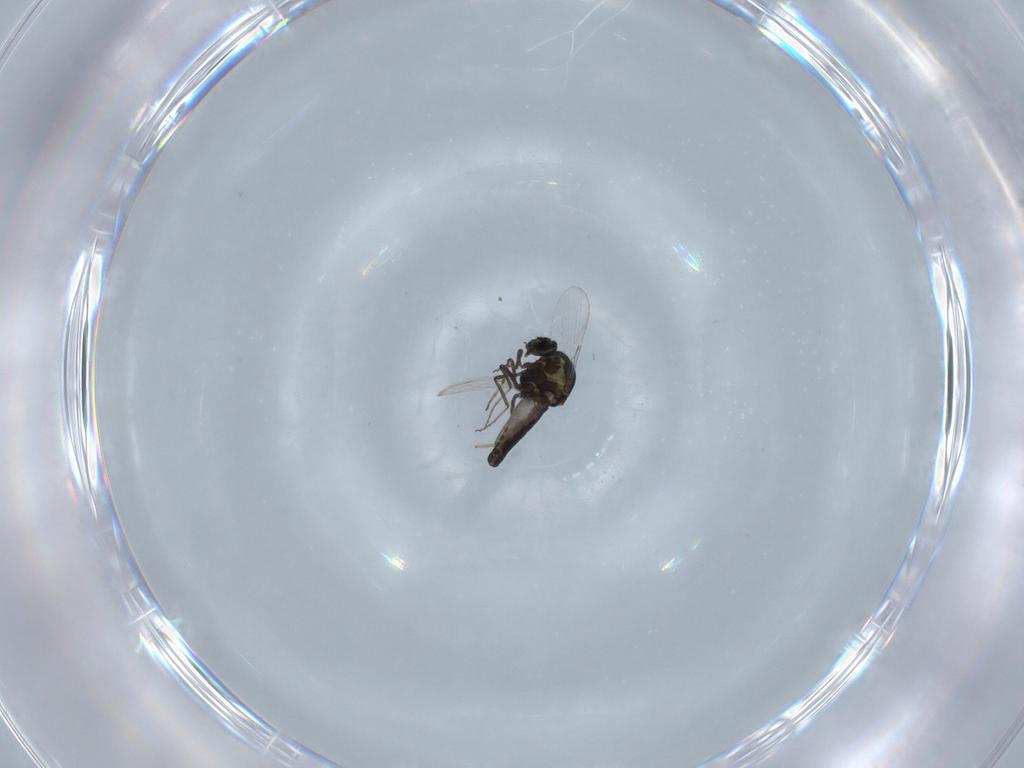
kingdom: Animalia
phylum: Arthropoda
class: Insecta
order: Diptera
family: Ceratopogonidae
